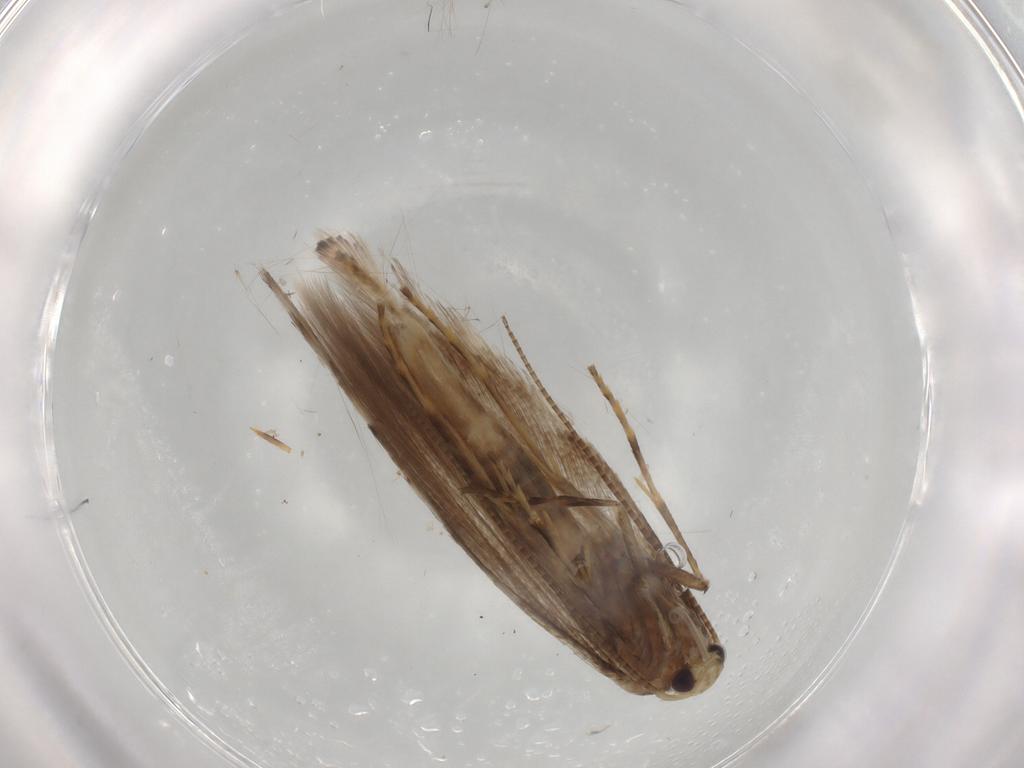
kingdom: Animalia
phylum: Arthropoda
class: Insecta
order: Lepidoptera
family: Gracillariidae
